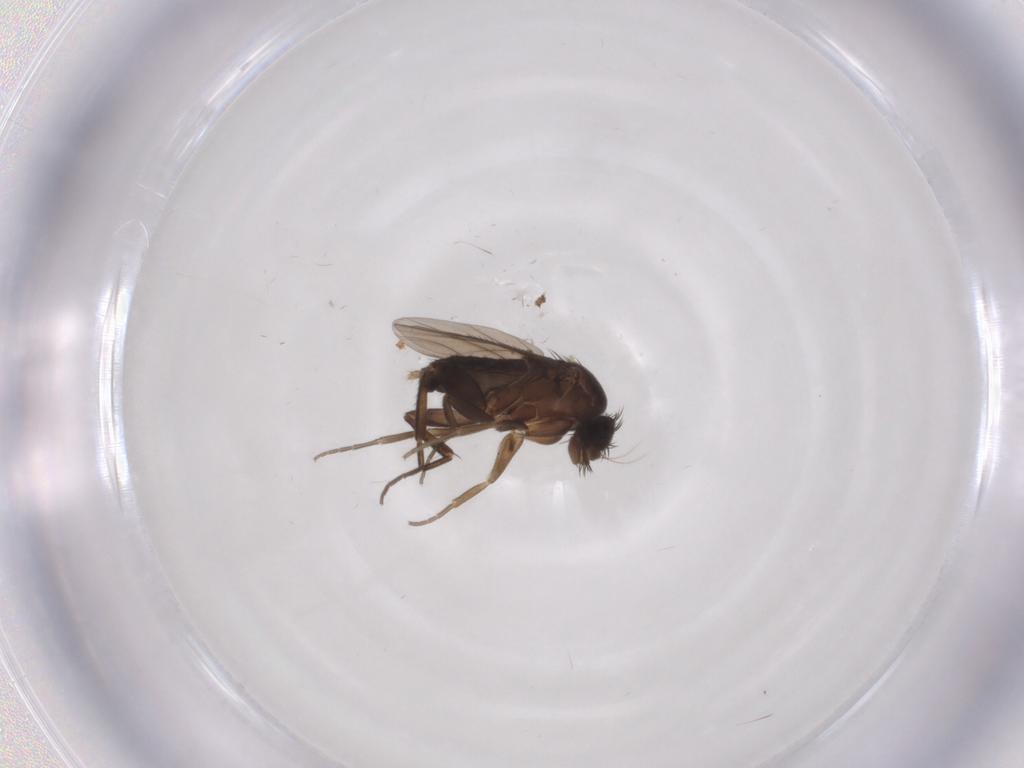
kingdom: Animalia
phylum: Arthropoda
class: Insecta
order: Diptera
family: Phoridae
